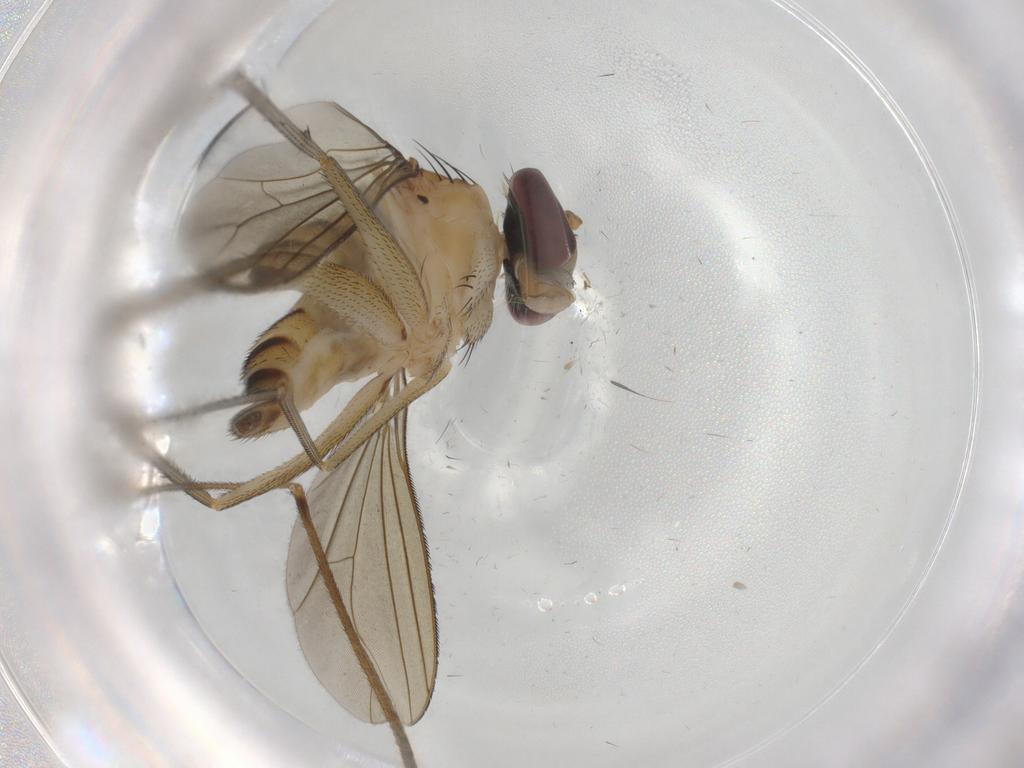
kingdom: Animalia
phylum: Arthropoda
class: Insecta
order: Diptera
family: Limoniidae
